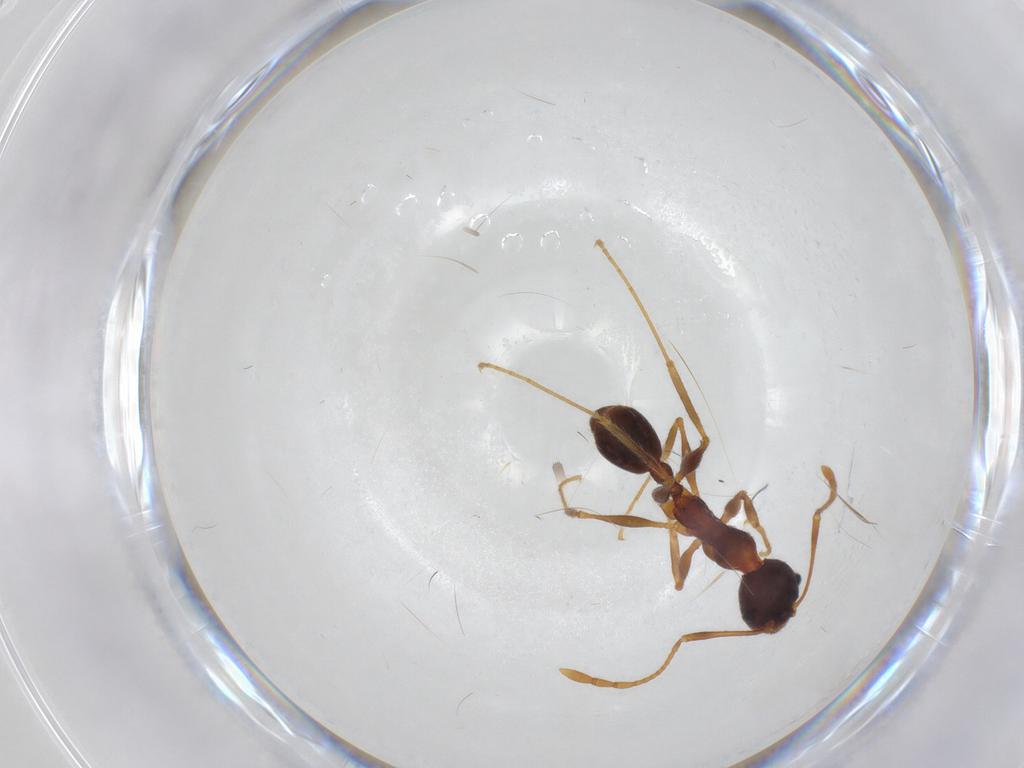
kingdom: Animalia
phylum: Arthropoda
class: Insecta
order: Hymenoptera
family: Formicidae
